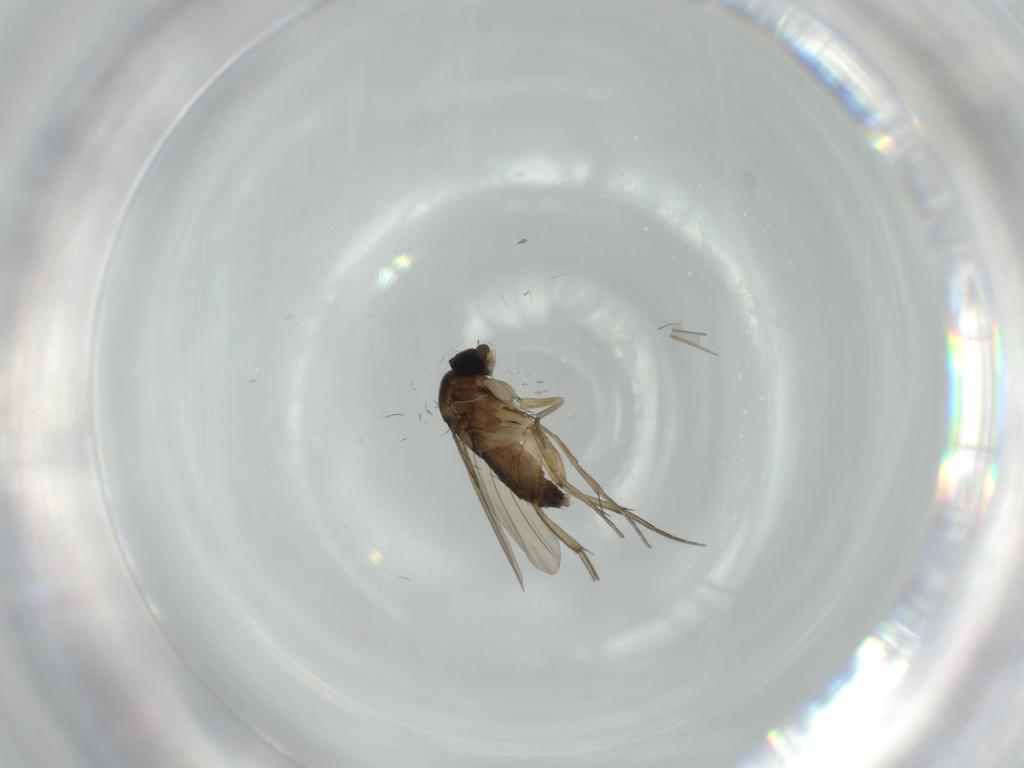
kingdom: Animalia
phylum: Arthropoda
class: Insecta
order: Diptera
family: Phoridae
